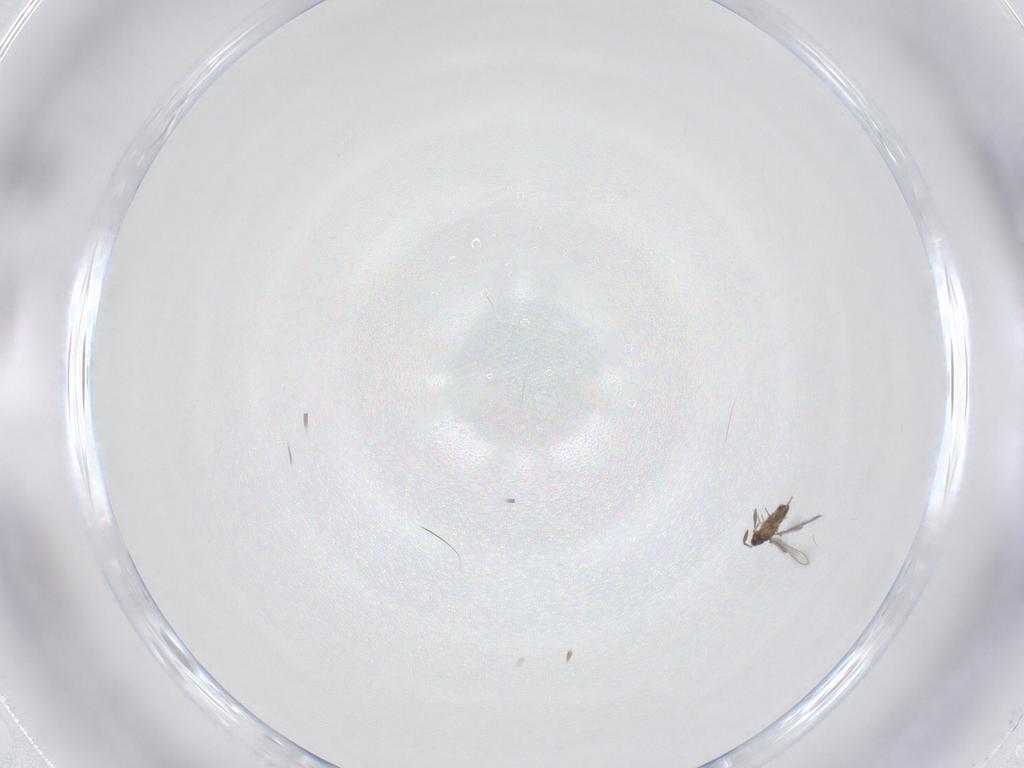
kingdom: Animalia
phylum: Arthropoda
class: Insecta
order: Hymenoptera
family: Mymaridae
